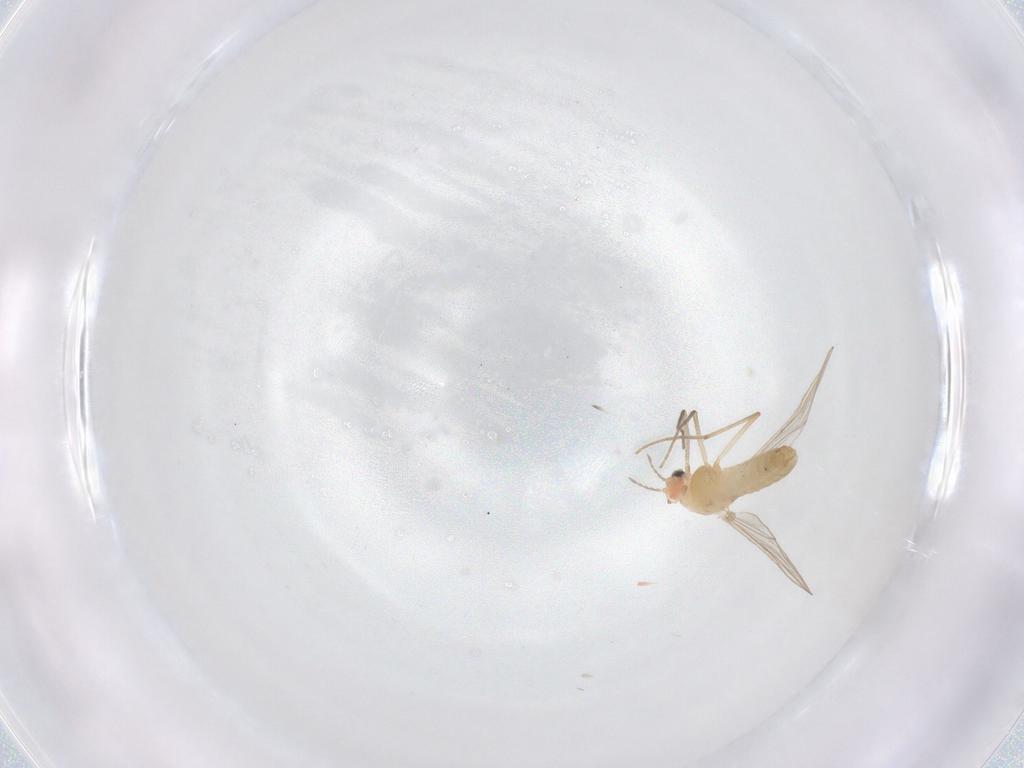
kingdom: Animalia
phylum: Arthropoda
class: Insecta
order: Diptera
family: Chironomidae
